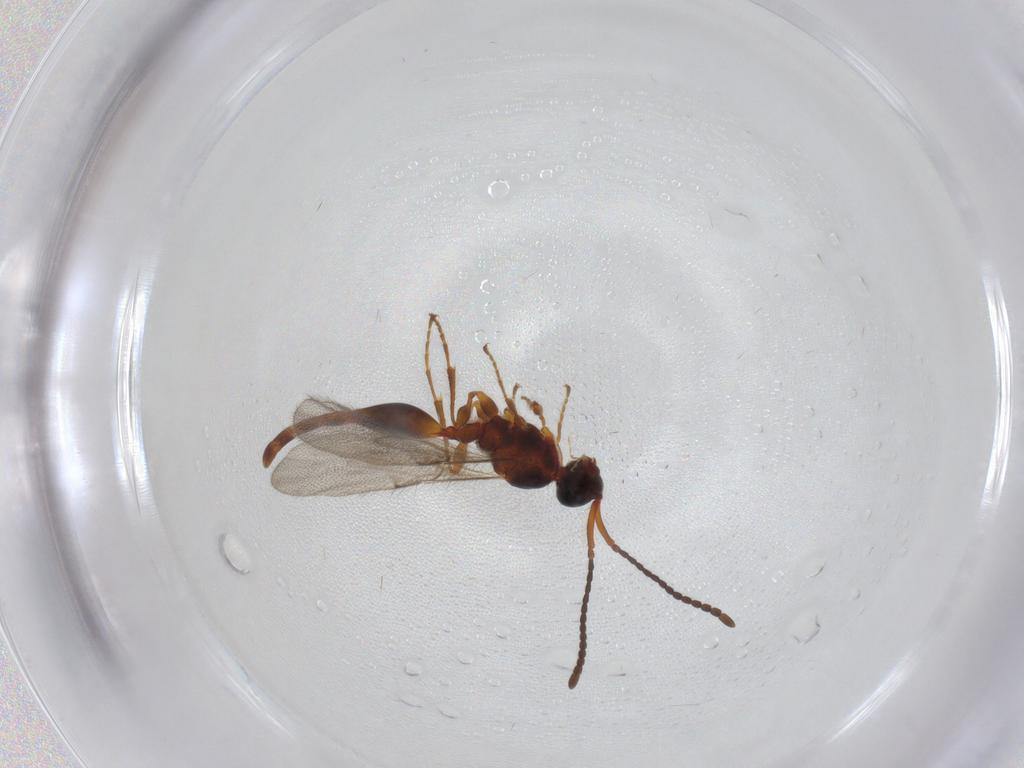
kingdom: Animalia
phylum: Arthropoda
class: Insecta
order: Hymenoptera
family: Diapriidae
